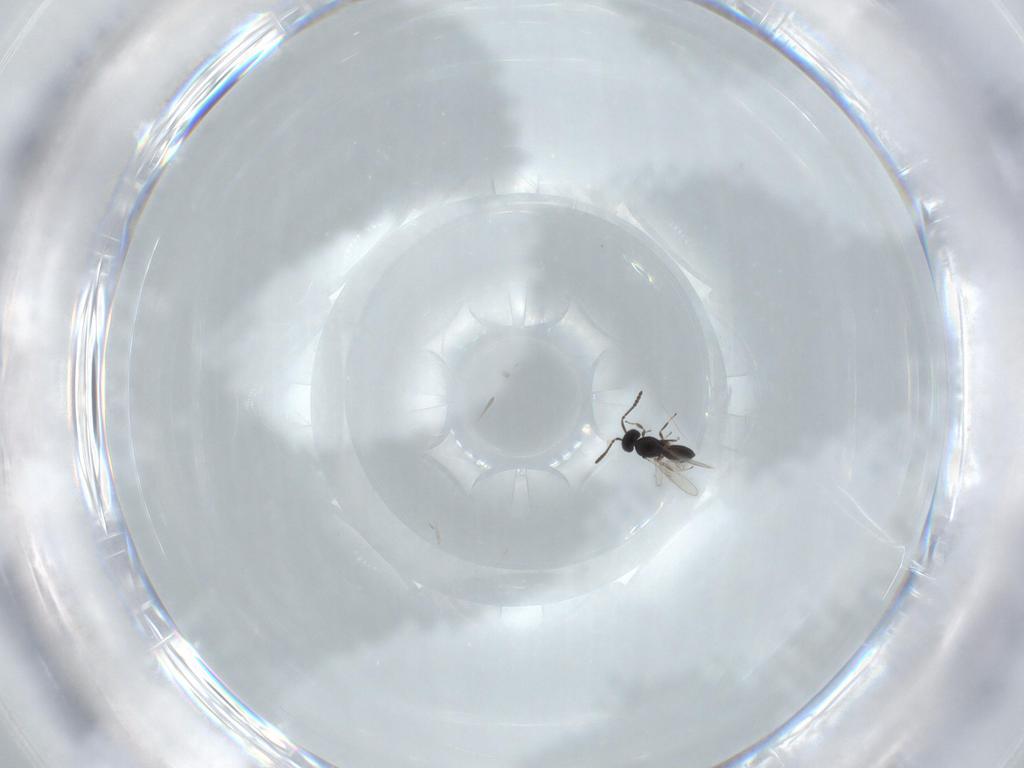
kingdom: Animalia
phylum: Arthropoda
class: Insecta
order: Hymenoptera
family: Scelionidae
